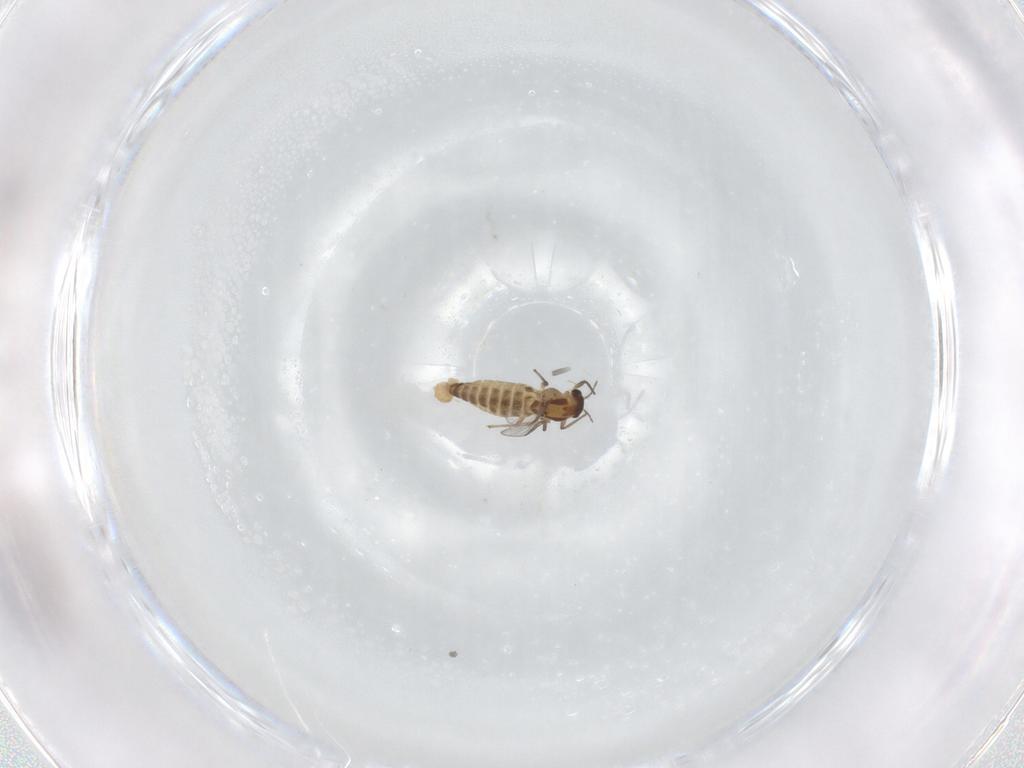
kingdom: Animalia
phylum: Arthropoda
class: Insecta
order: Diptera
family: Chironomidae
